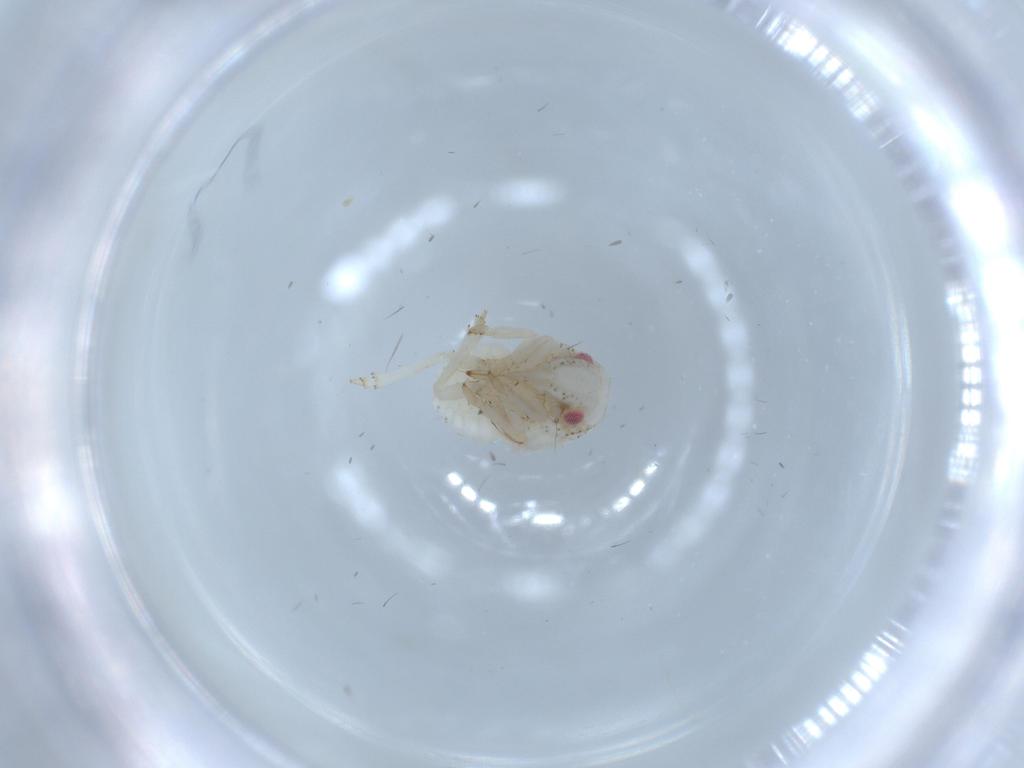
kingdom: Animalia
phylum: Arthropoda
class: Insecta
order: Hemiptera
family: Acanaloniidae
